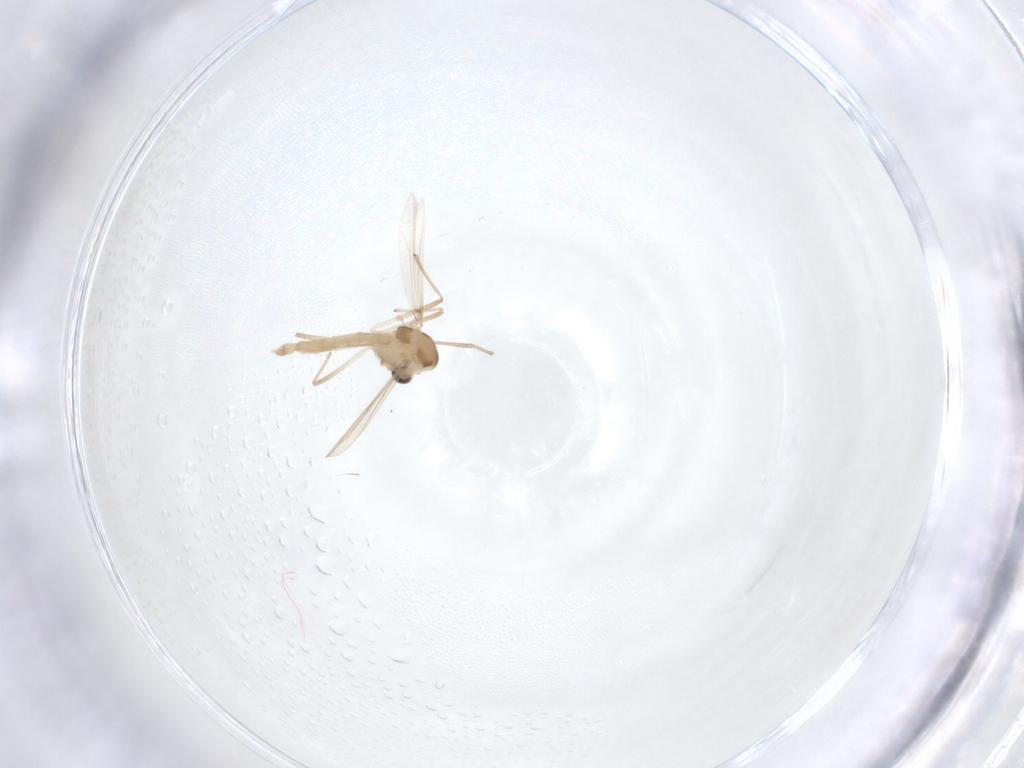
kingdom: Animalia
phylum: Arthropoda
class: Insecta
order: Diptera
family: Chironomidae
